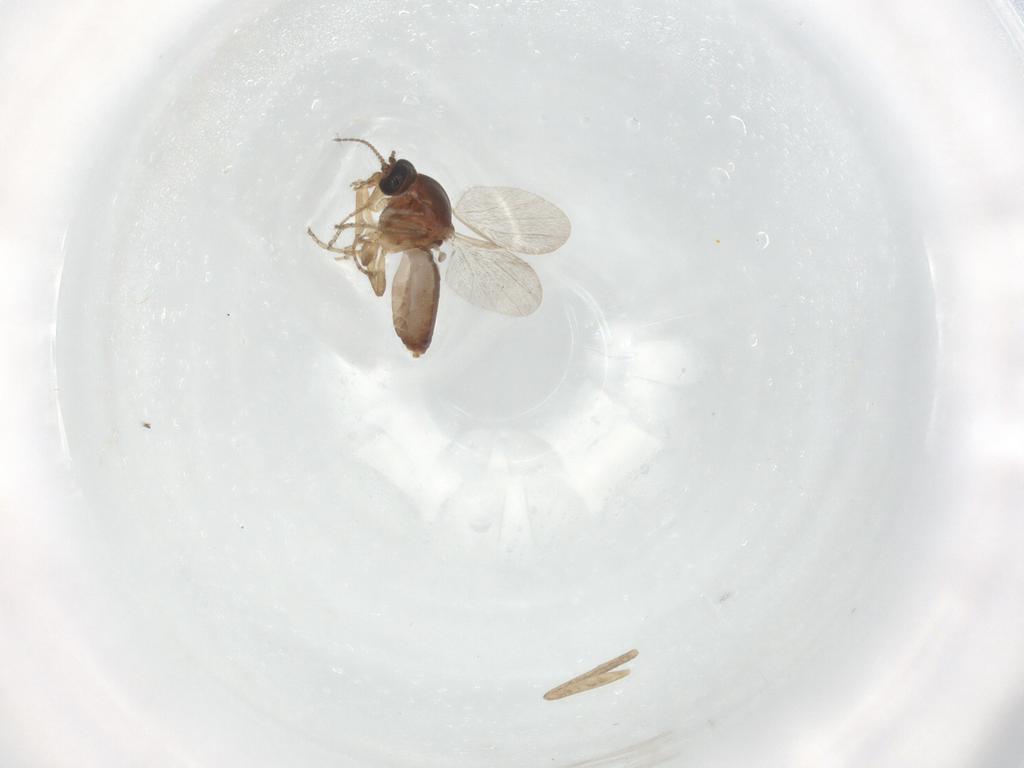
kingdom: Animalia
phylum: Arthropoda
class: Insecta
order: Diptera
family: Ceratopogonidae
